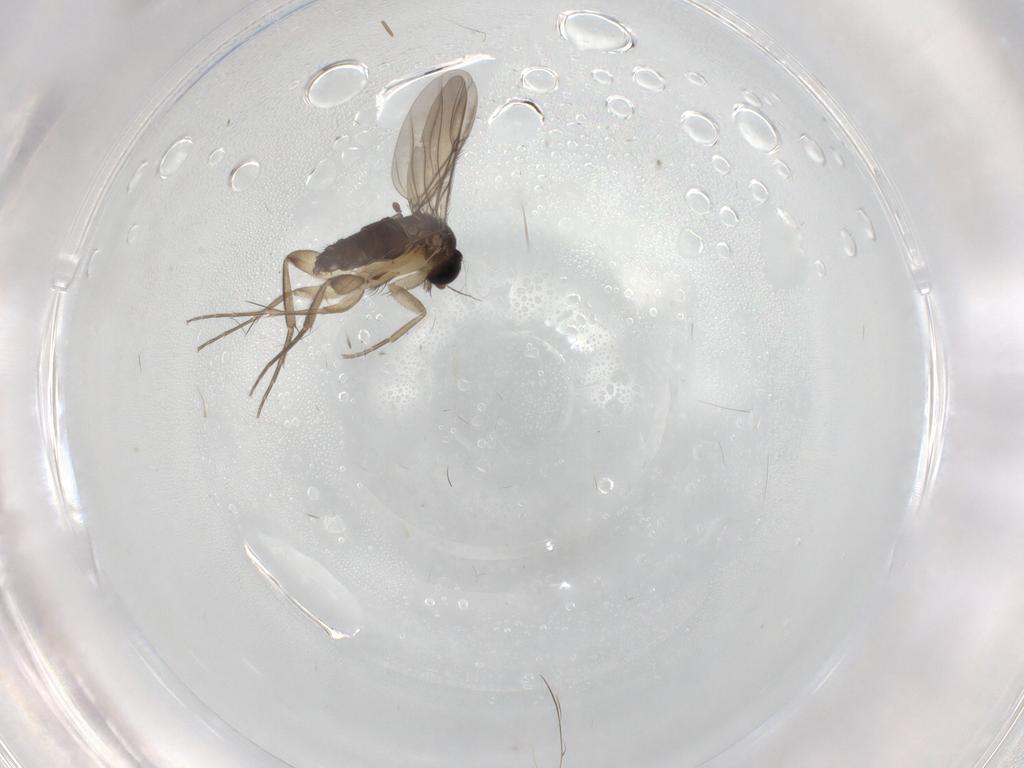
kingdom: Animalia
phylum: Arthropoda
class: Insecta
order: Diptera
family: Phoridae
